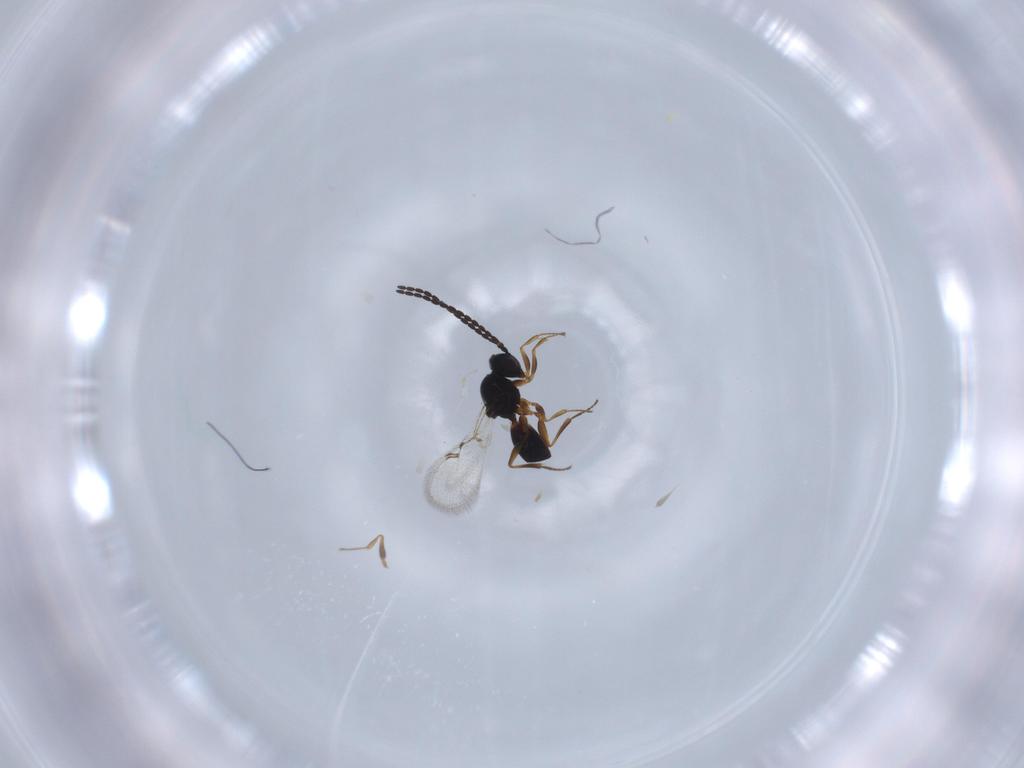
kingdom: Animalia
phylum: Arthropoda
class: Insecta
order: Hymenoptera
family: Figitidae
